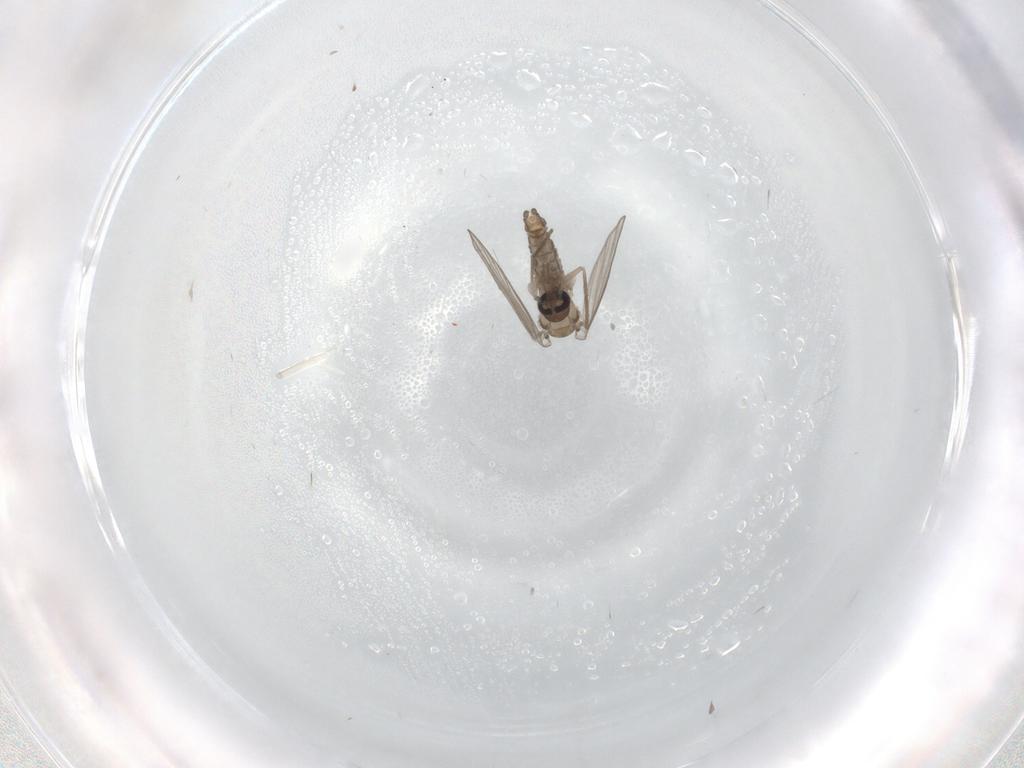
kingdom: Animalia
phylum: Arthropoda
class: Insecta
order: Diptera
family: Psychodidae
